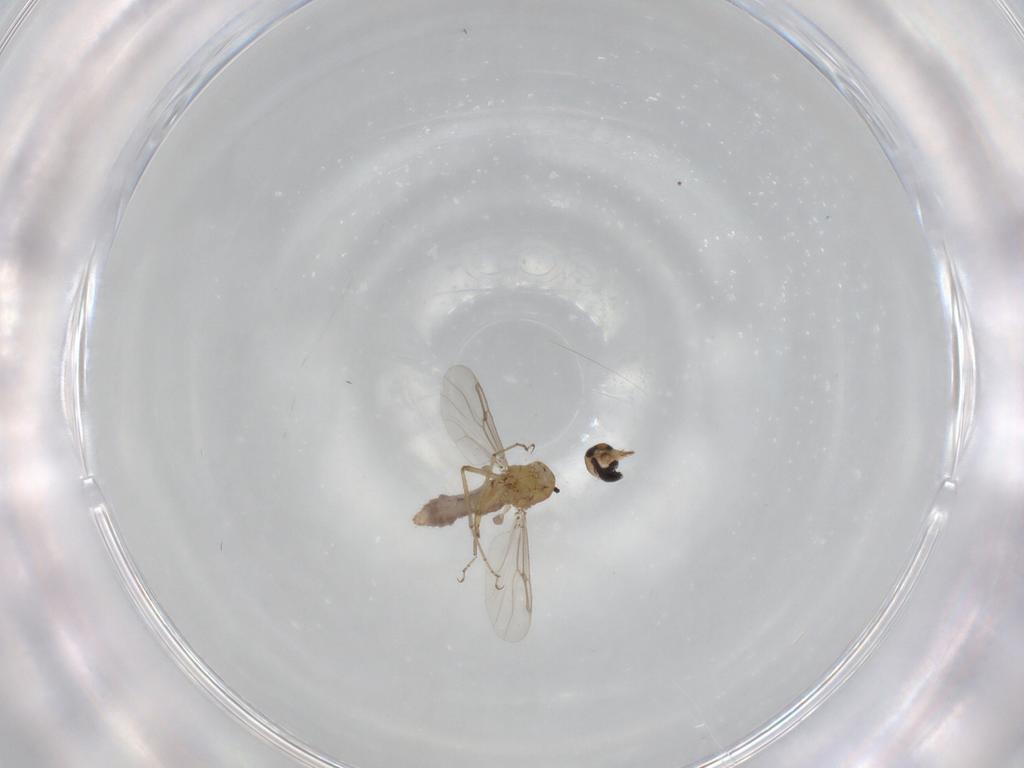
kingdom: Animalia
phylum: Arthropoda
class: Insecta
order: Diptera
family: Ceratopogonidae
